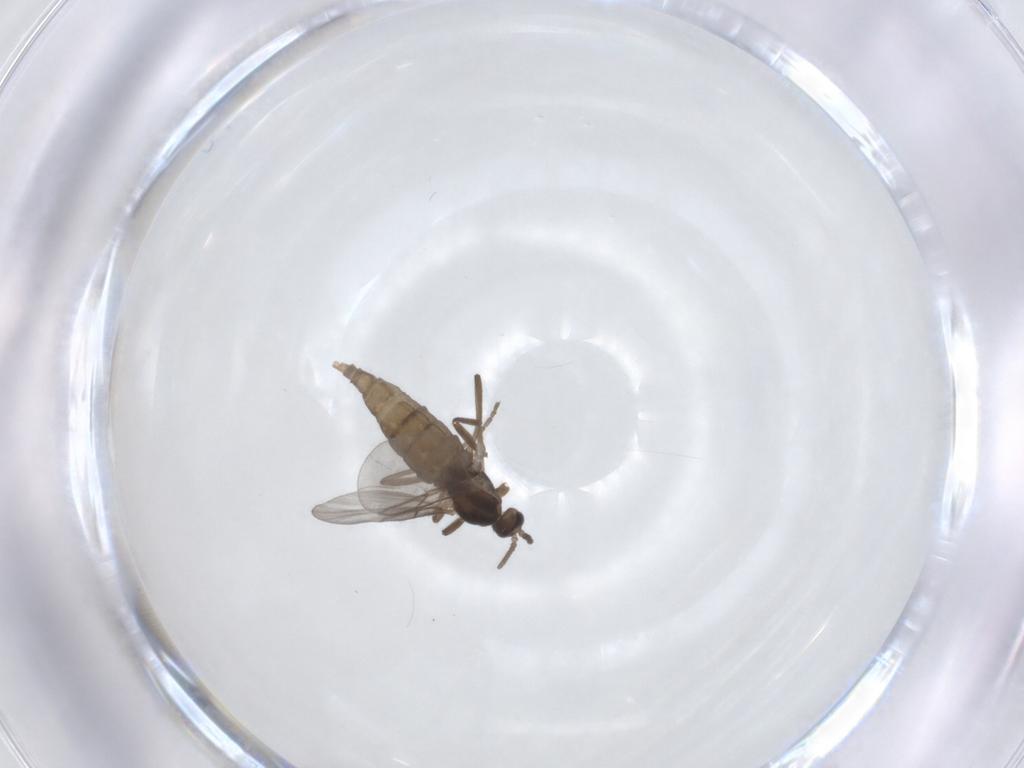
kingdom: Animalia
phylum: Arthropoda
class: Insecta
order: Diptera
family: Cecidomyiidae
